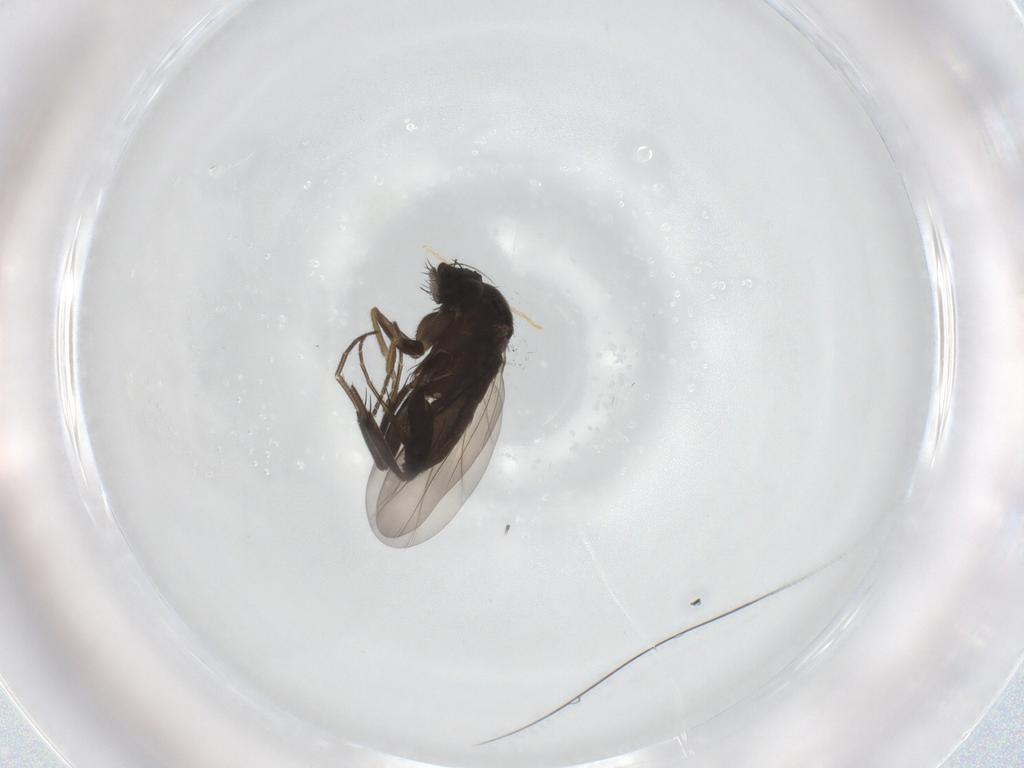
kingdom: Animalia
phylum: Arthropoda
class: Insecta
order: Diptera
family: Phoridae
